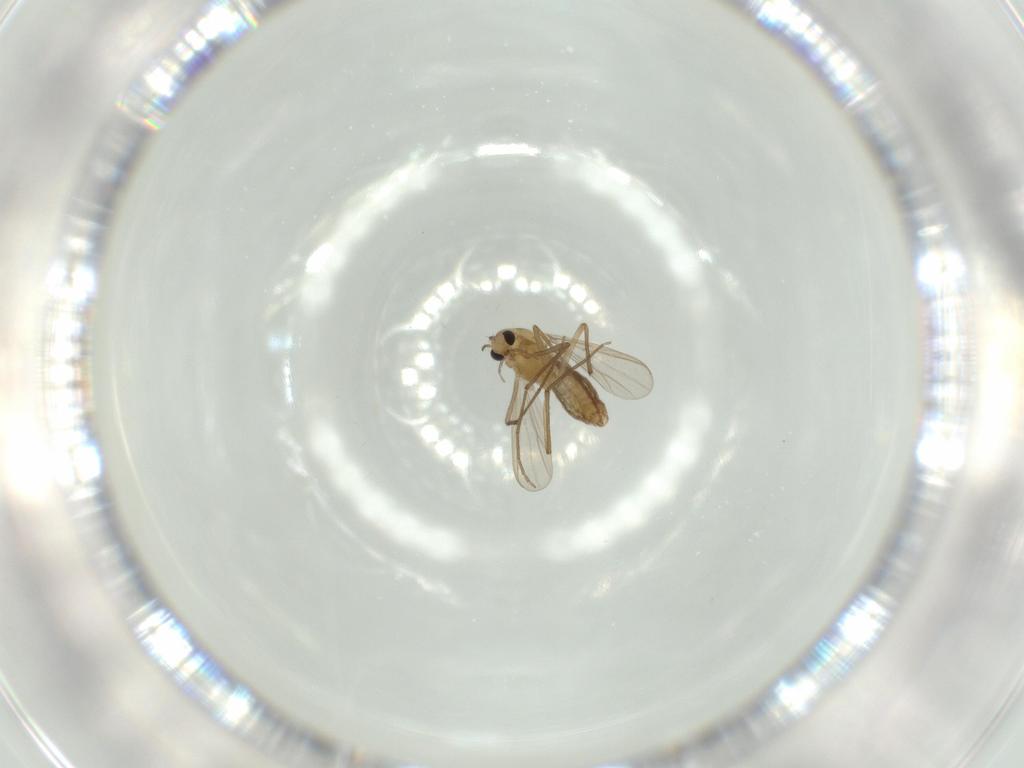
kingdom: Animalia
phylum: Arthropoda
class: Insecta
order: Diptera
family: Chironomidae
